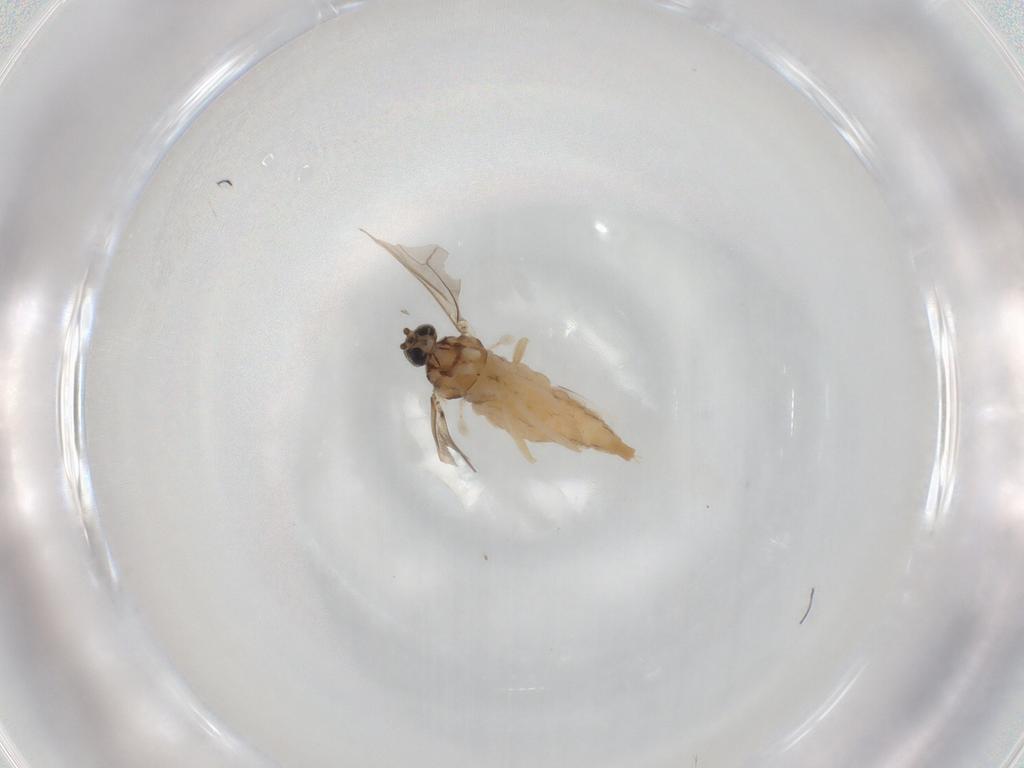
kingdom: Animalia
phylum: Arthropoda
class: Insecta
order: Diptera
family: Cecidomyiidae
